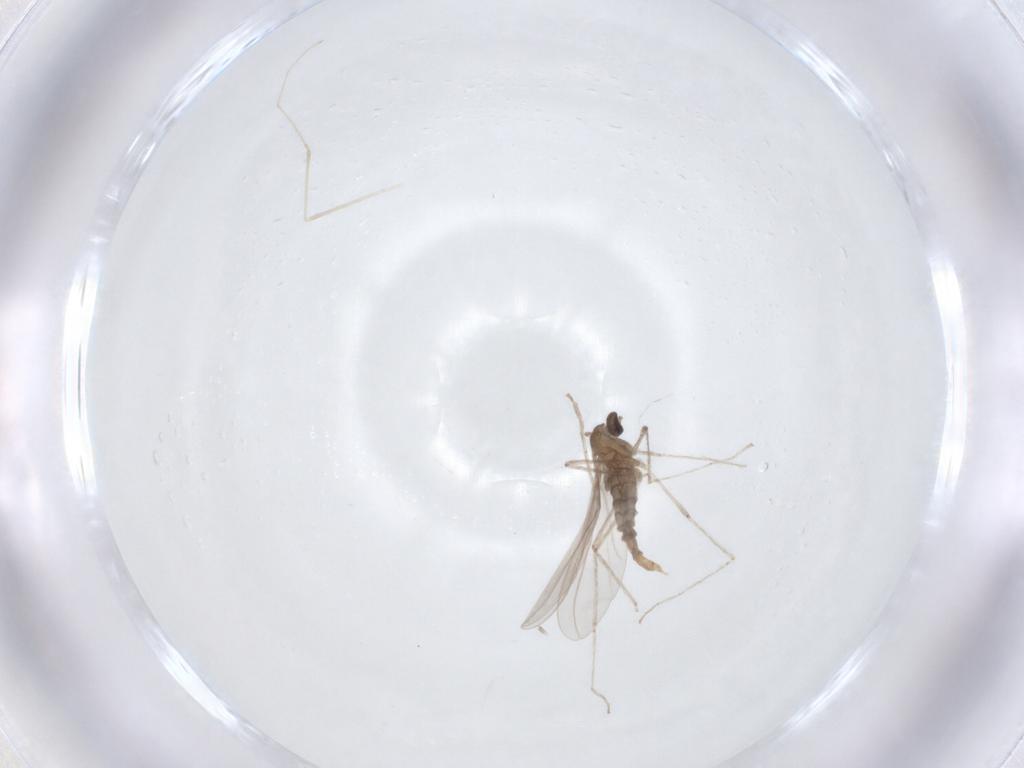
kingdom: Animalia
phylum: Arthropoda
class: Insecta
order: Diptera
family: Cecidomyiidae
